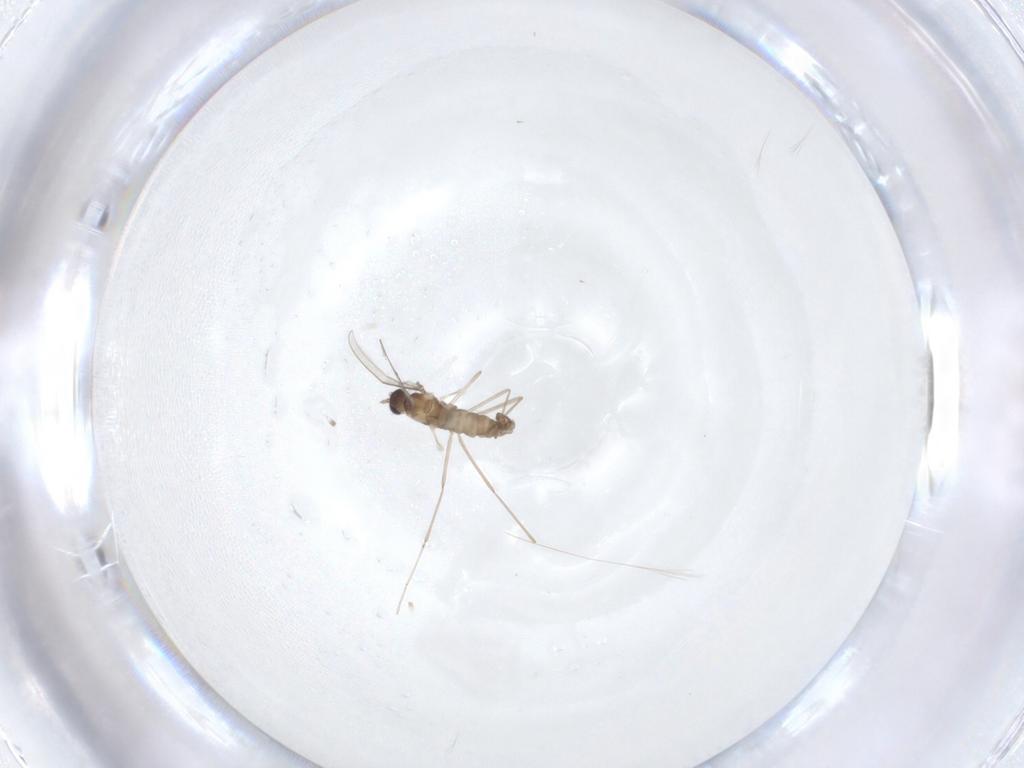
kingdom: Animalia
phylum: Arthropoda
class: Insecta
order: Diptera
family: Cecidomyiidae
